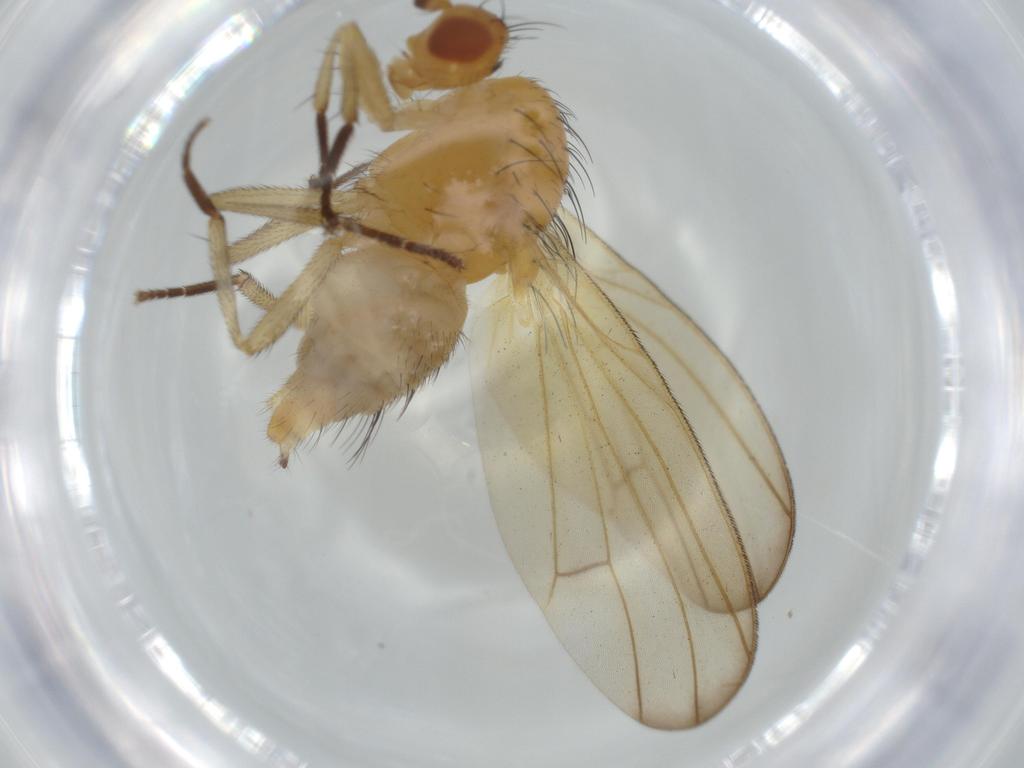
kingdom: Animalia
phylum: Arthropoda
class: Insecta
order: Diptera
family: Lauxaniidae
